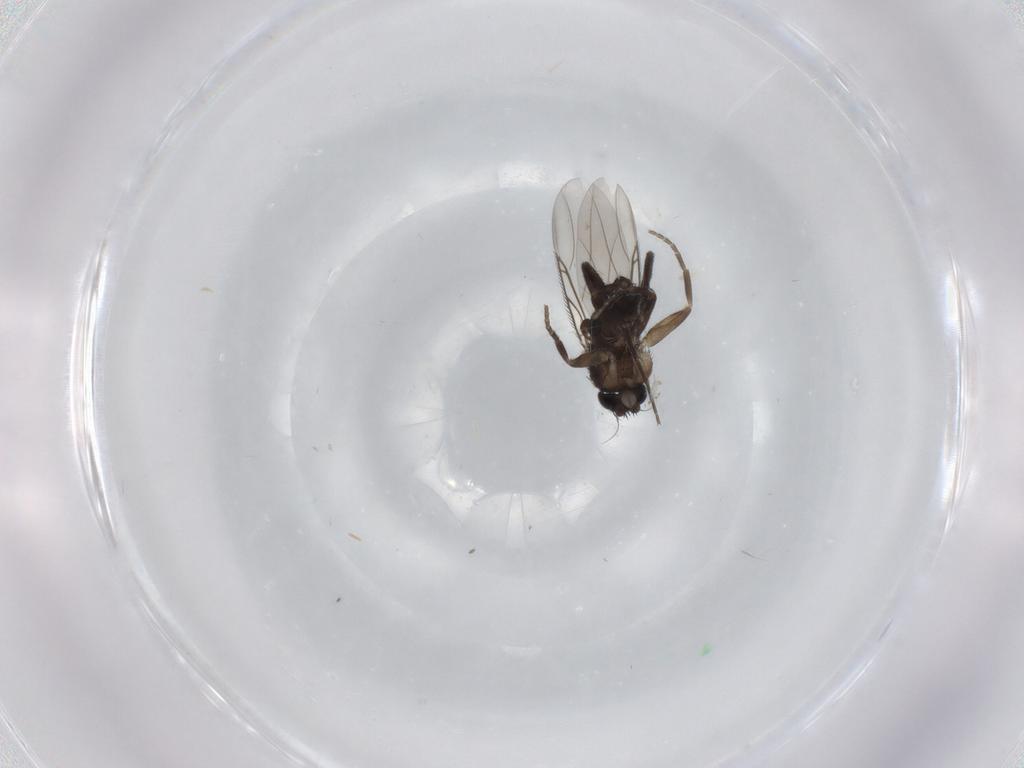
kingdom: Animalia
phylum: Arthropoda
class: Insecta
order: Diptera
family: Phoridae
